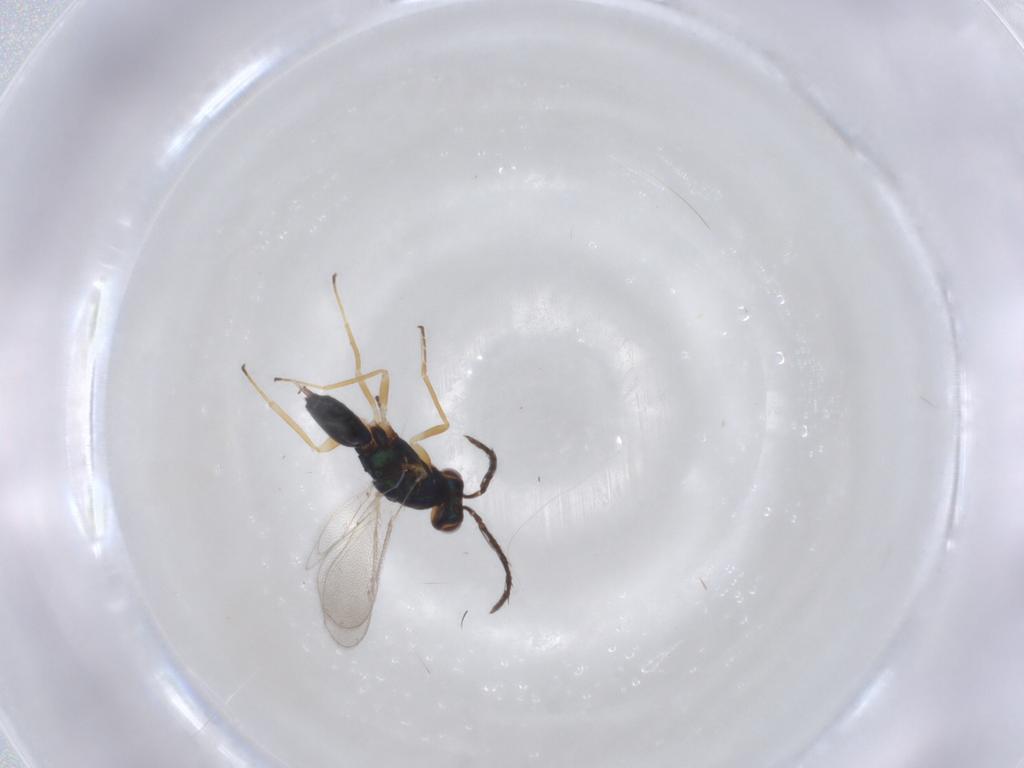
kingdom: Animalia
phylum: Arthropoda
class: Insecta
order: Hymenoptera
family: Eulophidae
